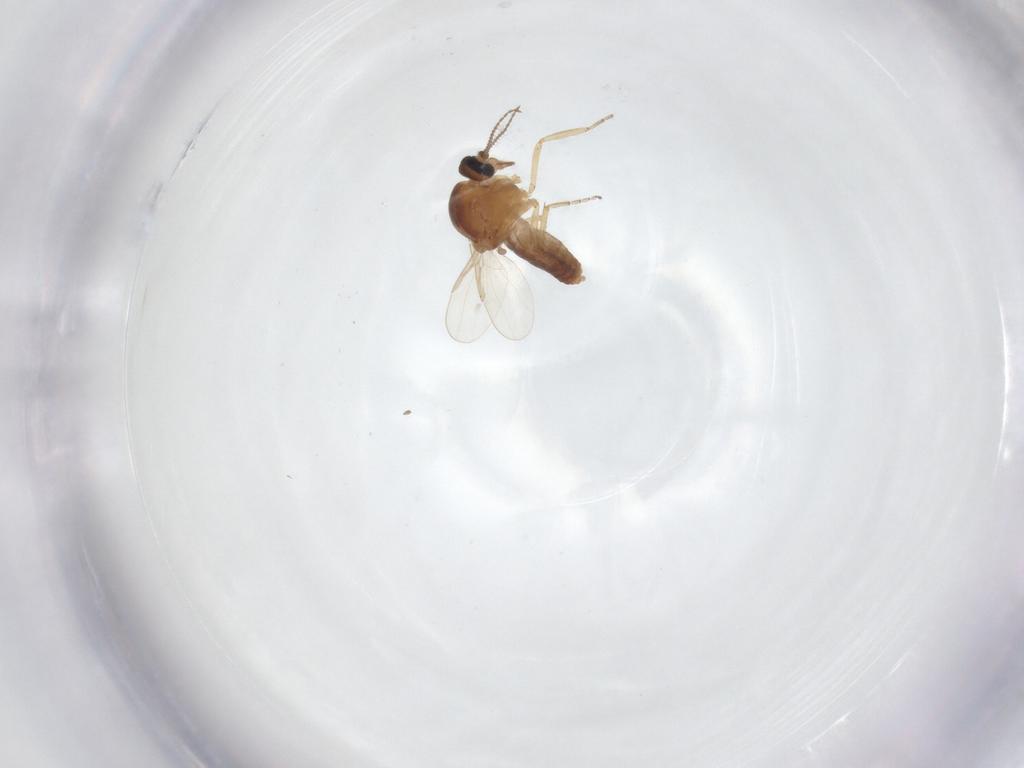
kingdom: Animalia
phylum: Arthropoda
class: Insecta
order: Diptera
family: Ceratopogonidae
